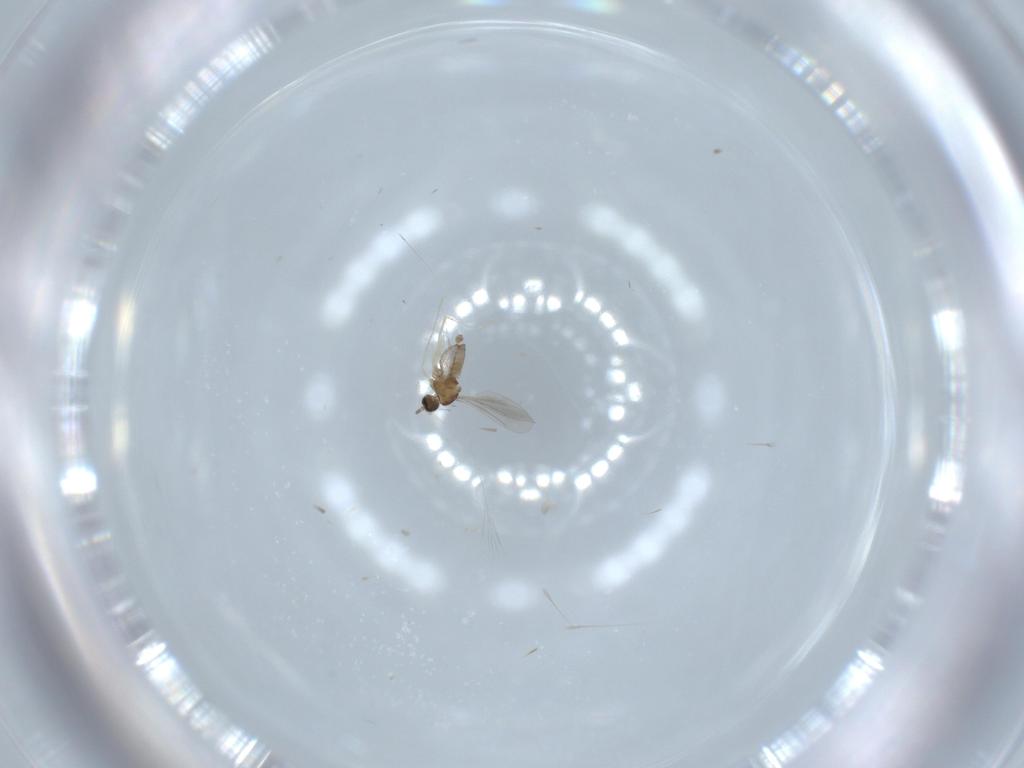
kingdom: Animalia
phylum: Arthropoda
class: Insecta
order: Diptera
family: Cecidomyiidae
